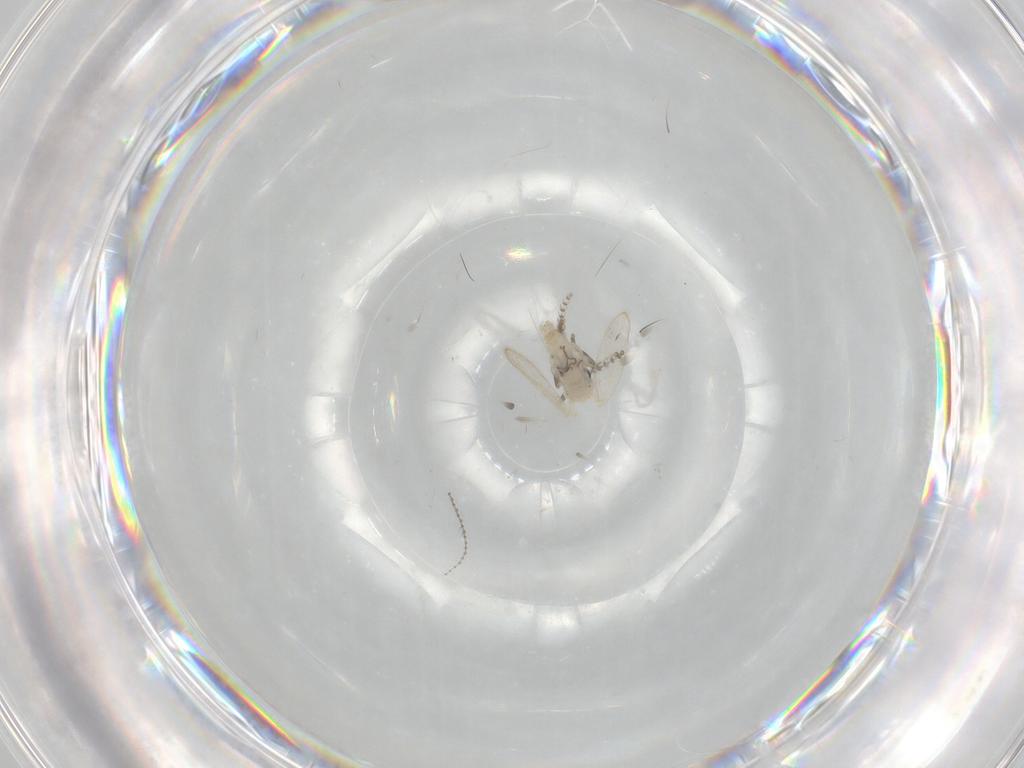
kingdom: Animalia
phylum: Arthropoda
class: Insecta
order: Diptera
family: Psychodidae
